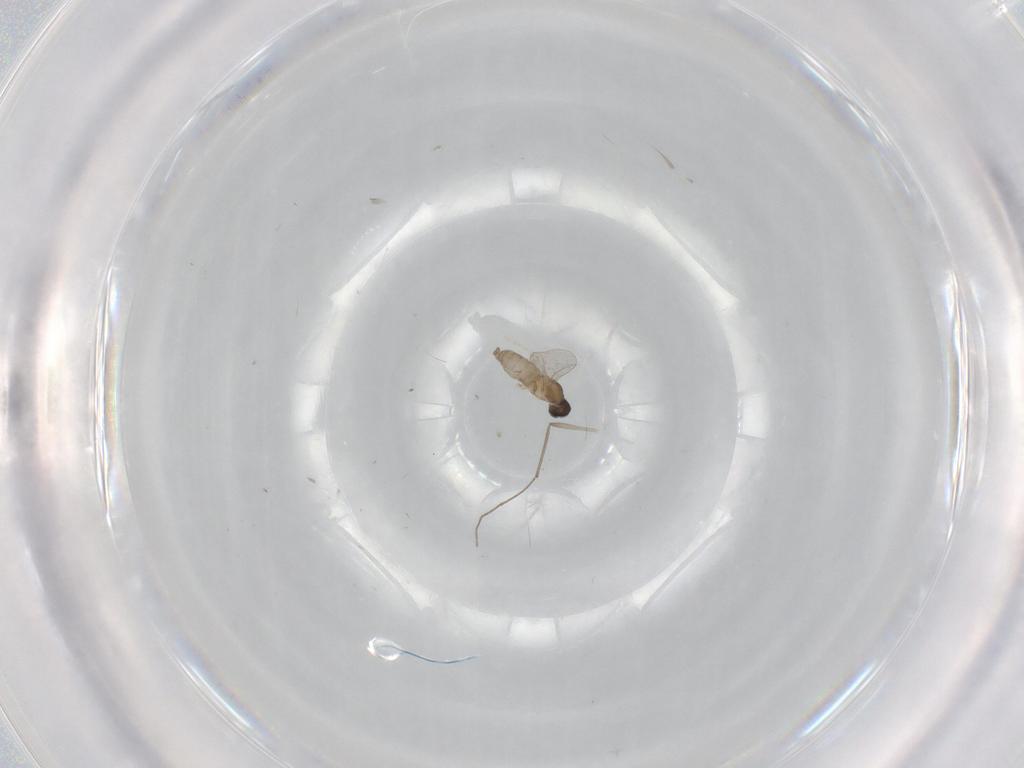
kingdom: Animalia
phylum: Arthropoda
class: Insecta
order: Diptera
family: Cecidomyiidae
